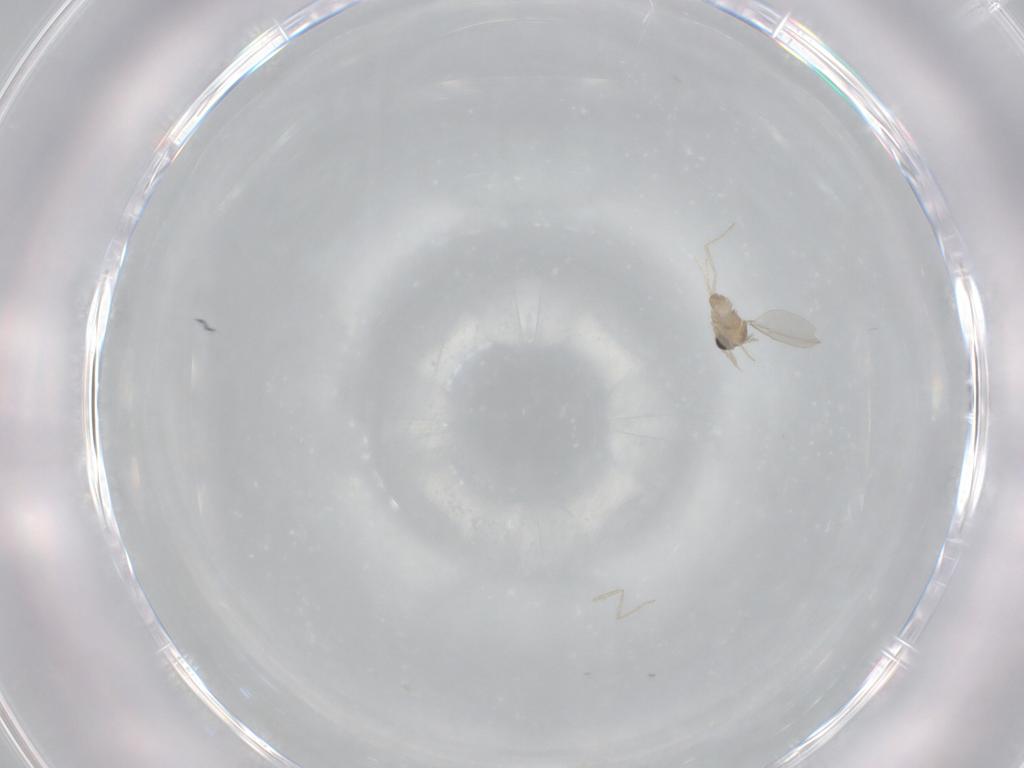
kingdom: Animalia
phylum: Arthropoda
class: Insecta
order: Diptera
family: Cecidomyiidae
